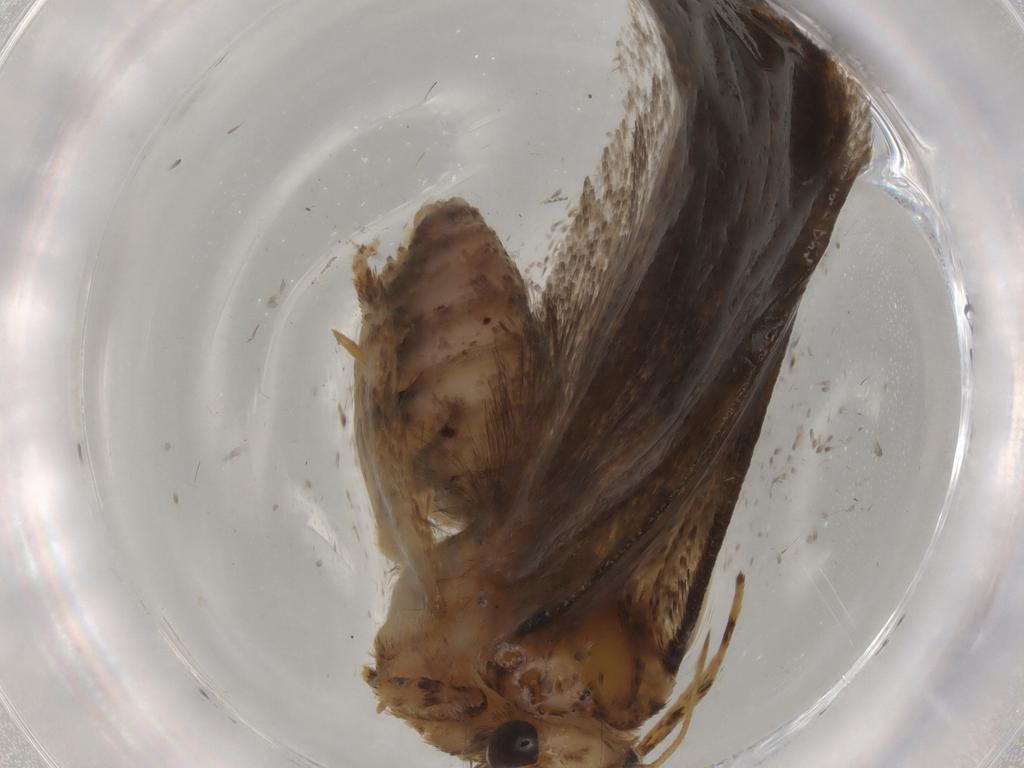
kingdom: Animalia
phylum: Arthropoda
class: Insecta
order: Lepidoptera
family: Tineidae
